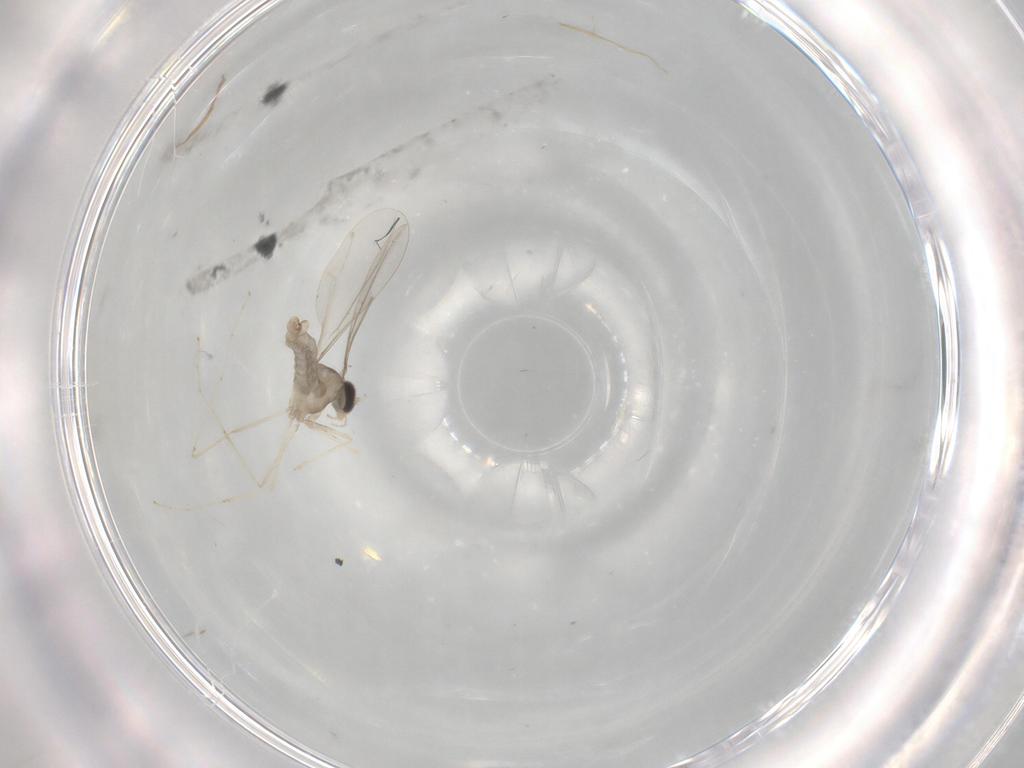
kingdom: Animalia
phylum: Arthropoda
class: Insecta
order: Diptera
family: Cecidomyiidae
